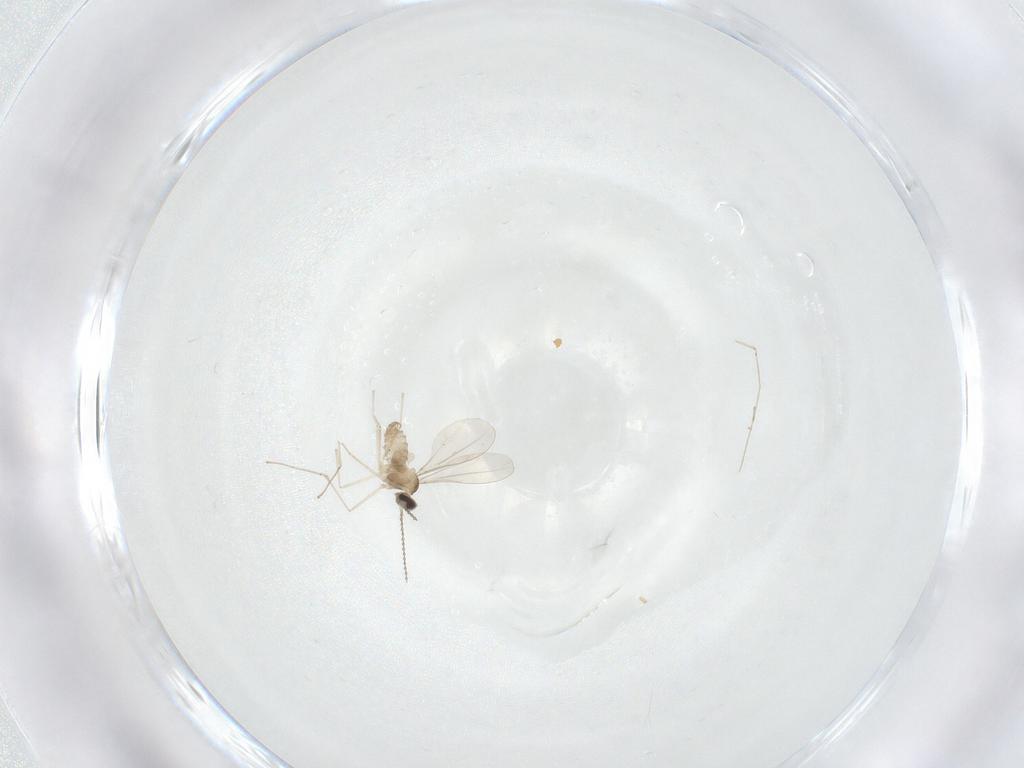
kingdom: Animalia
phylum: Arthropoda
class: Insecta
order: Diptera
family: Cecidomyiidae
